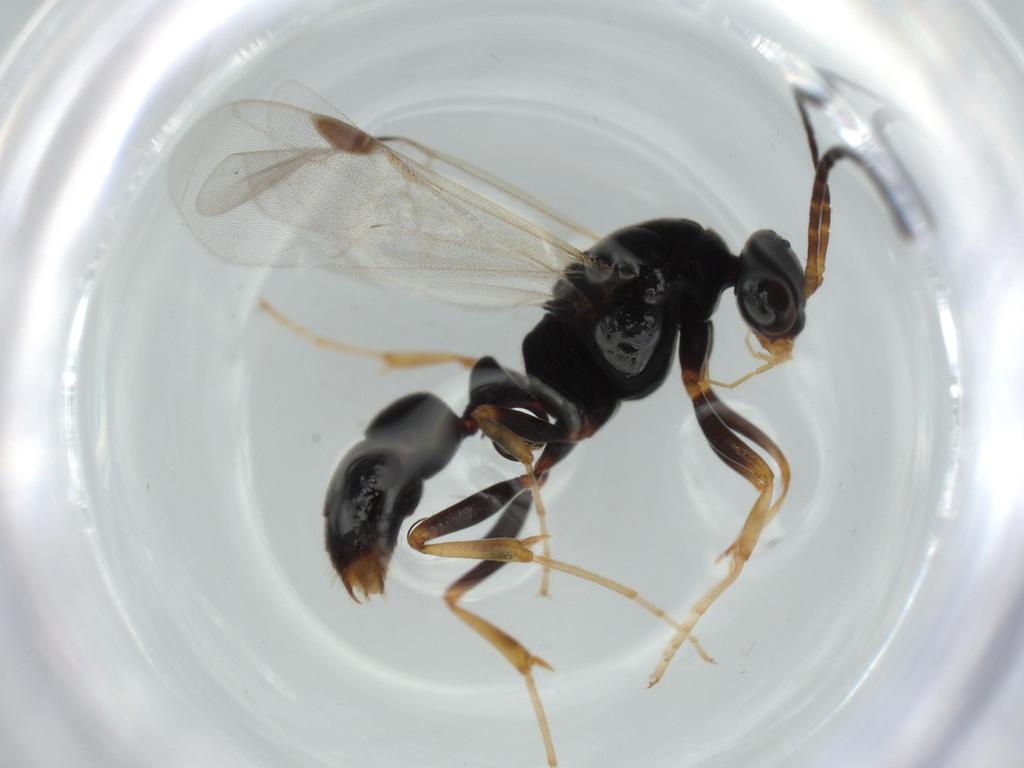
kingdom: Animalia
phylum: Arthropoda
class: Insecta
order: Hymenoptera
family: Formicidae
